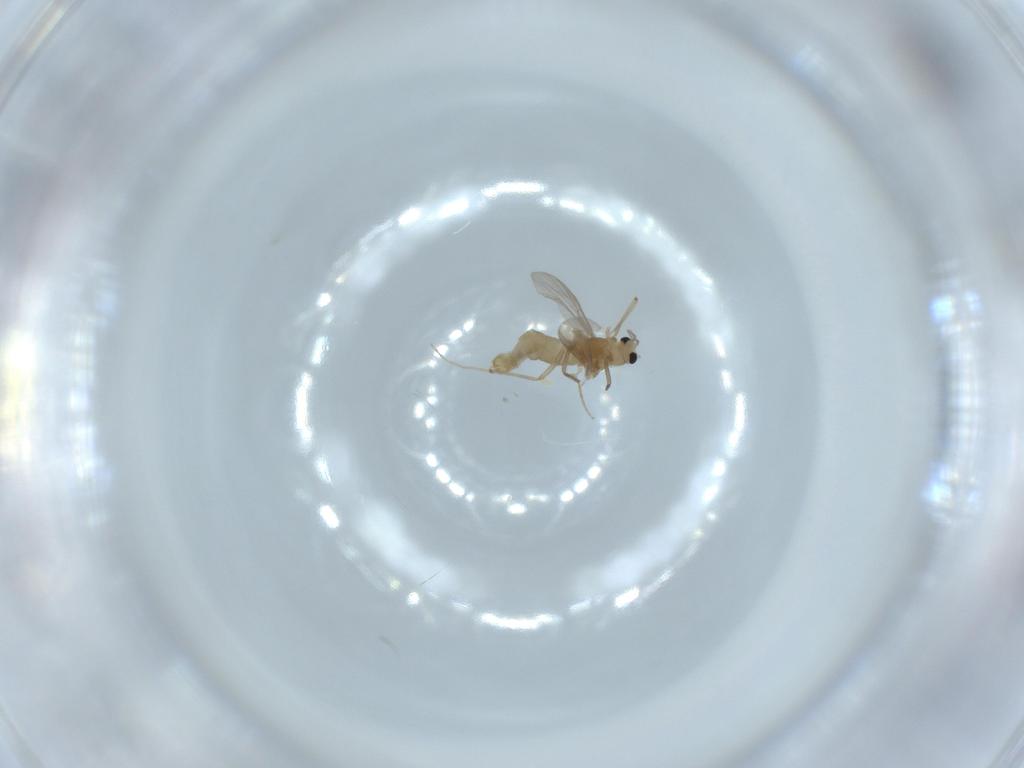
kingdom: Animalia
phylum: Arthropoda
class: Insecta
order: Diptera
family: Chironomidae
